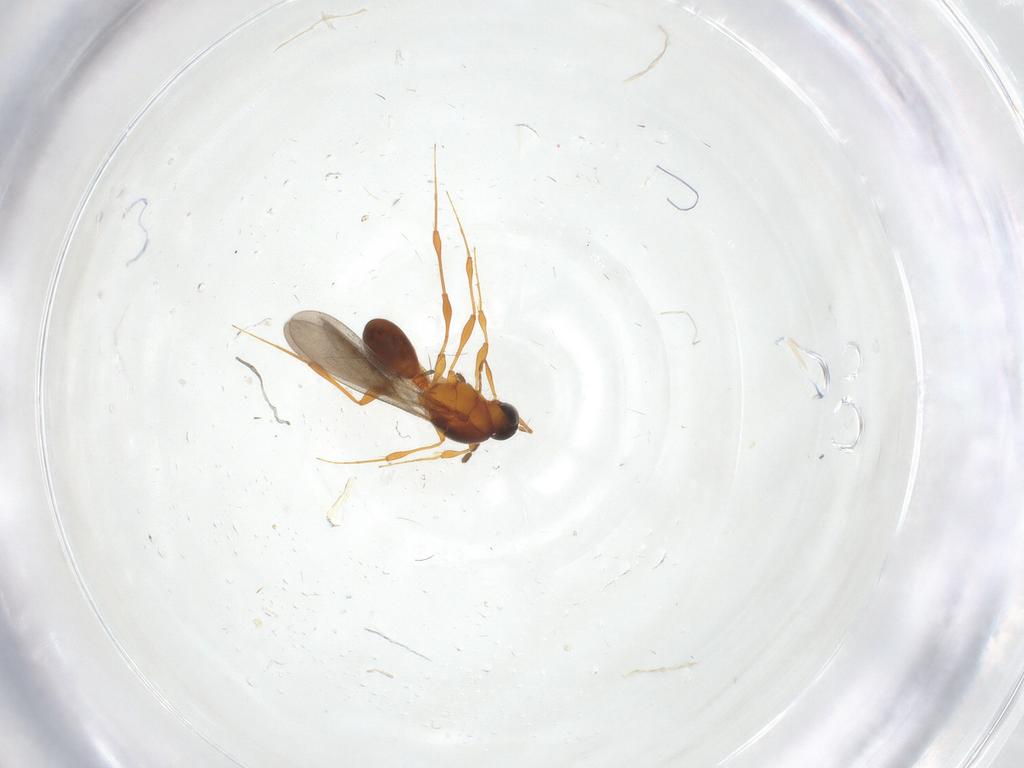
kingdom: Animalia
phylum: Arthropoda
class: Insecta
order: Hymenoptera
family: Platygastridae
